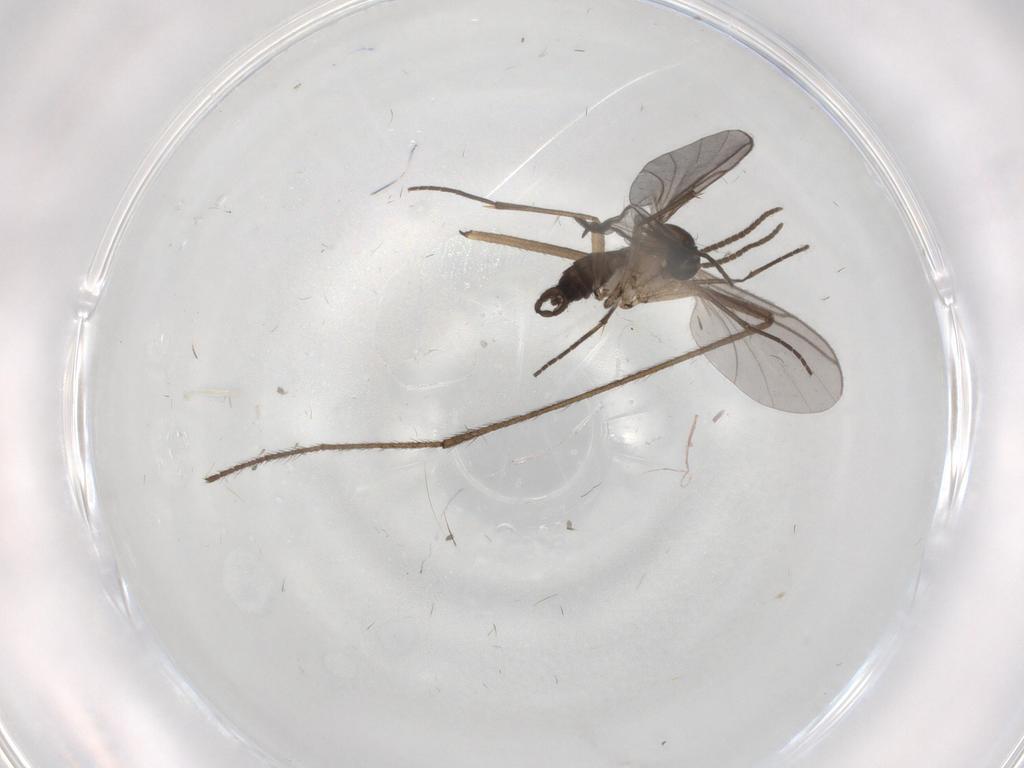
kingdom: Animalia
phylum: Arthropoda
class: Insecta
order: Diptera
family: Limoniidae
